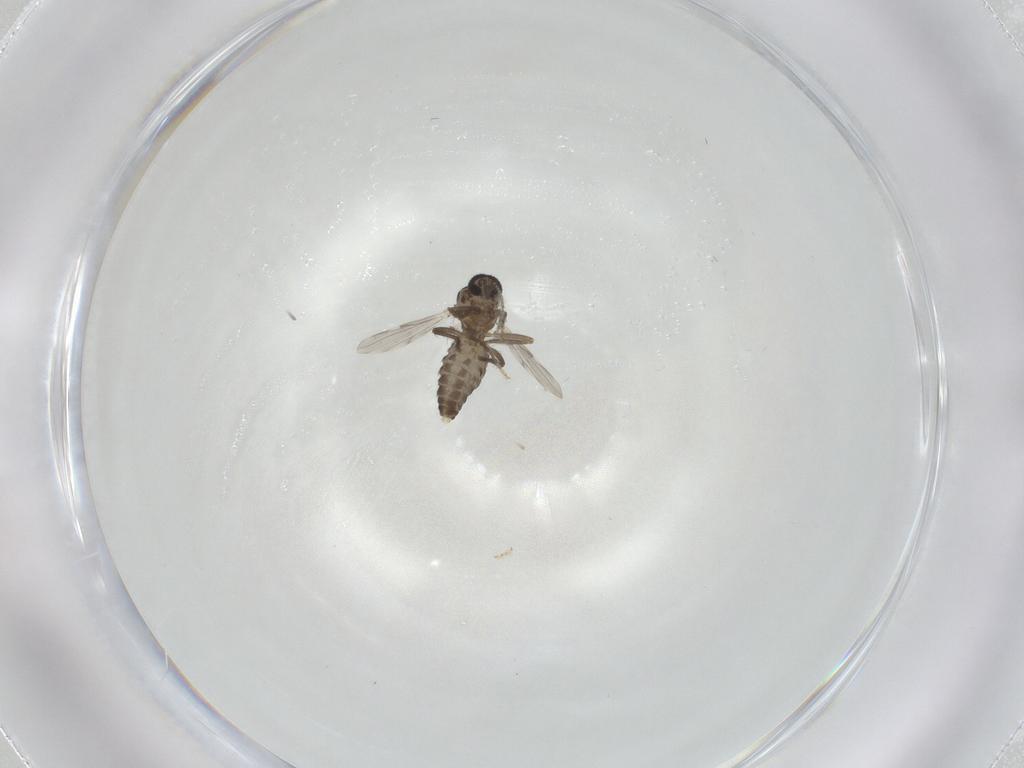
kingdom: Animalia
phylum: Arthropoda
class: Insecta
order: Diptera
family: Ceratopogonidae
